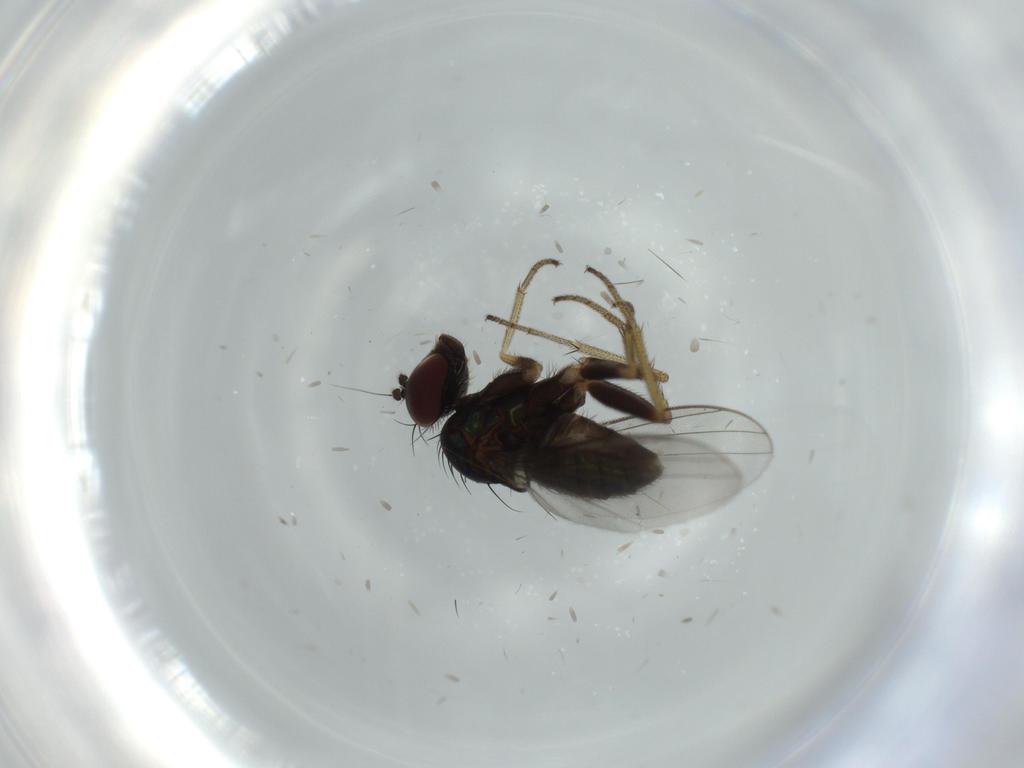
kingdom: Animalia
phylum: Arthropoda
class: Insecta
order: Diptera
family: Dolichopodidae
